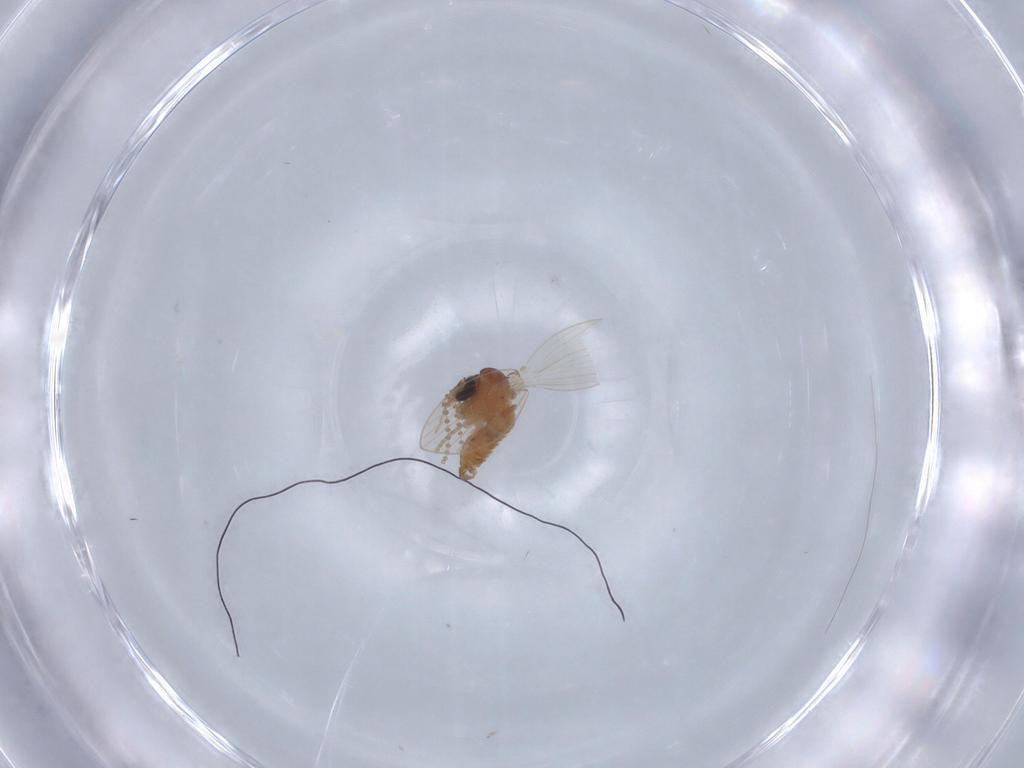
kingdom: Animalia
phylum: Arthropoda
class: Insecta
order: Diptera
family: Psychodidae
